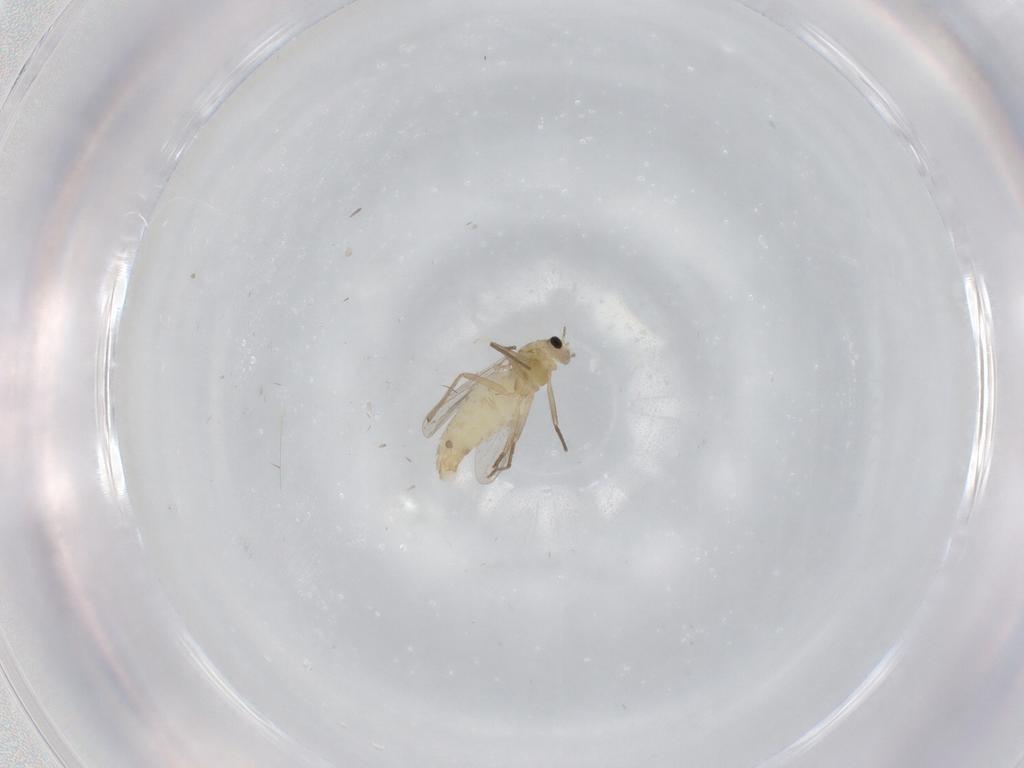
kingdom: Animalia
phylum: Arthropoda
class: Insecta
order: Diptera
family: Chironomidae
